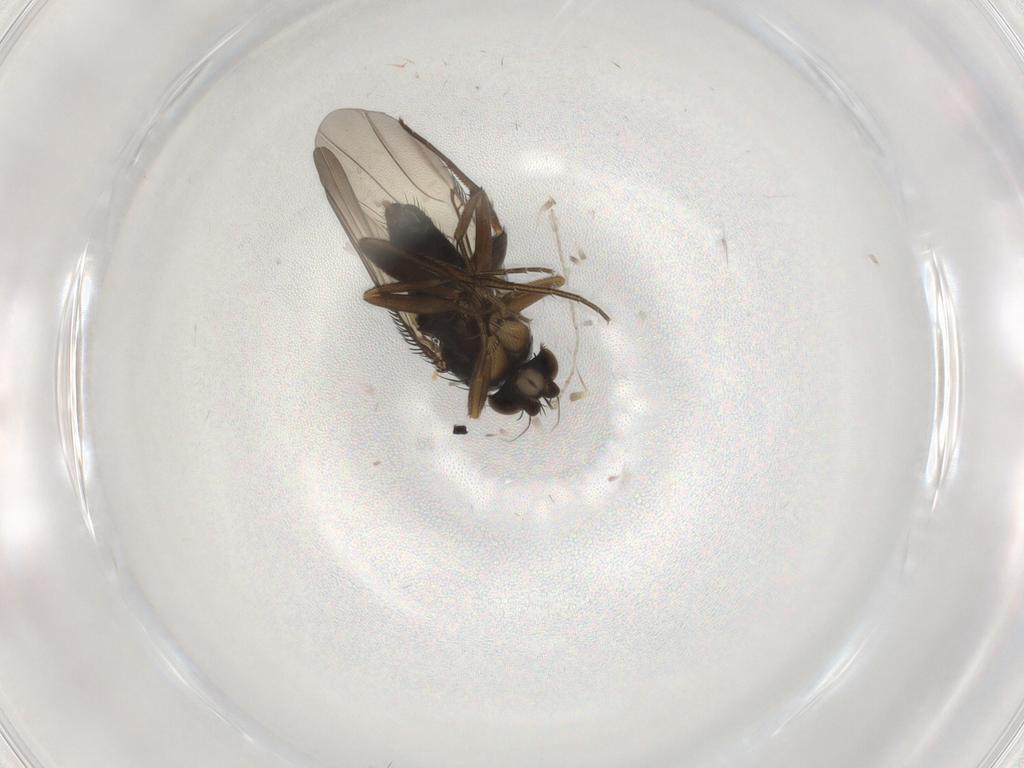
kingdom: Animalia
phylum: Arthropoda
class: Insecta
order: Diptera
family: Phoridae
